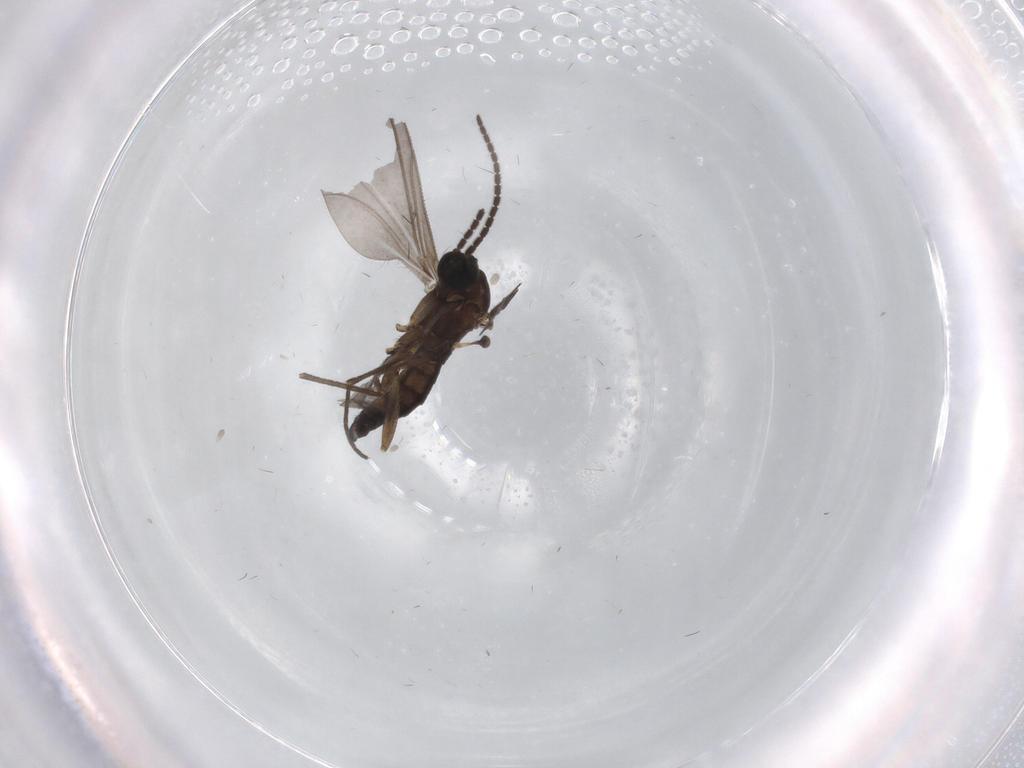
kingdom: Animalia
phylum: Arthropoda
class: Insecta
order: Diptera
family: Sciaridae
